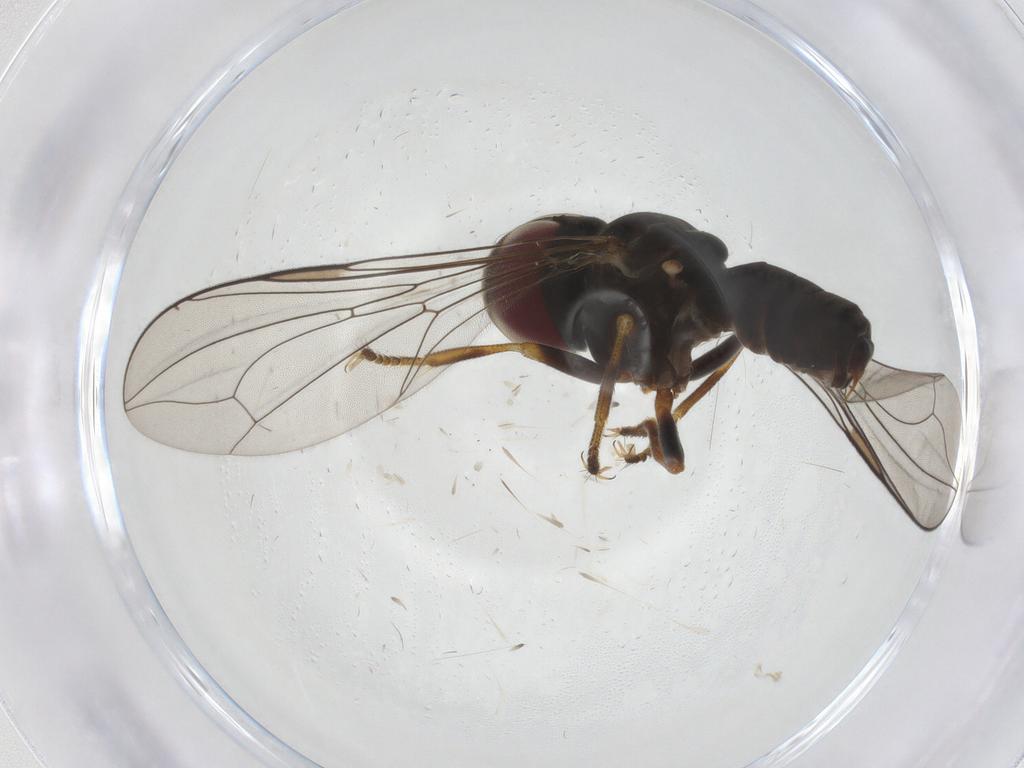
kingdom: Animalia
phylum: Arthropoda
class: Insecta
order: Diptera
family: Pipunculidae
